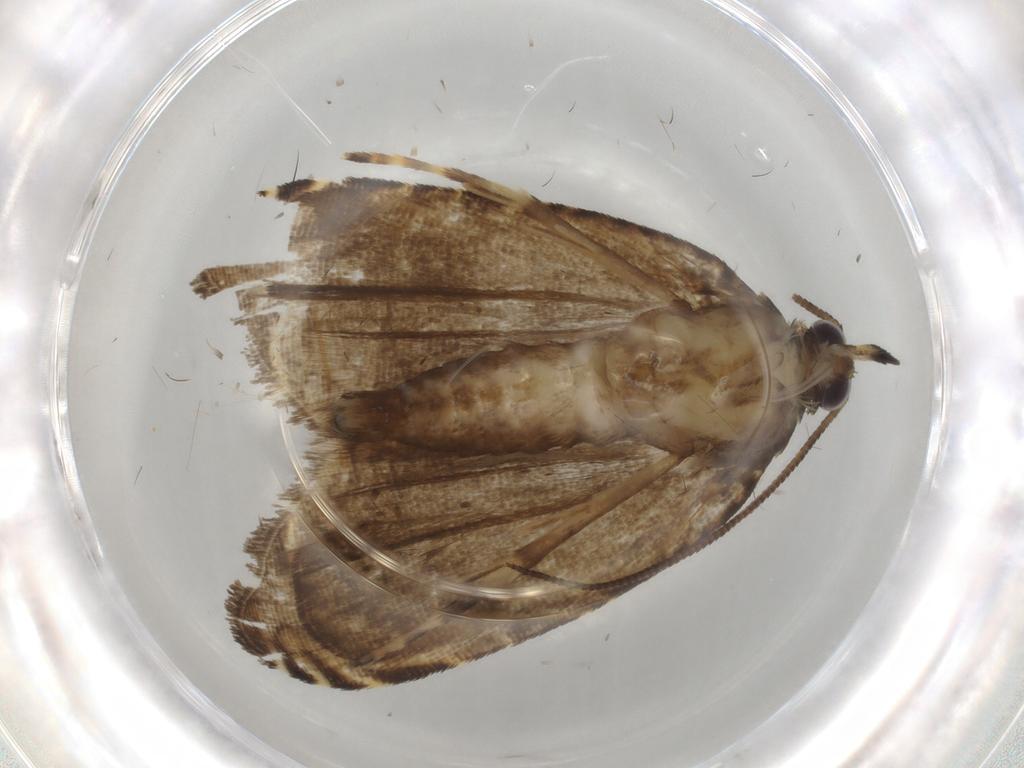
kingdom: Animalia
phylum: Arthropoda
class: Insecta
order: Lepidoptera
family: Tortricidae
